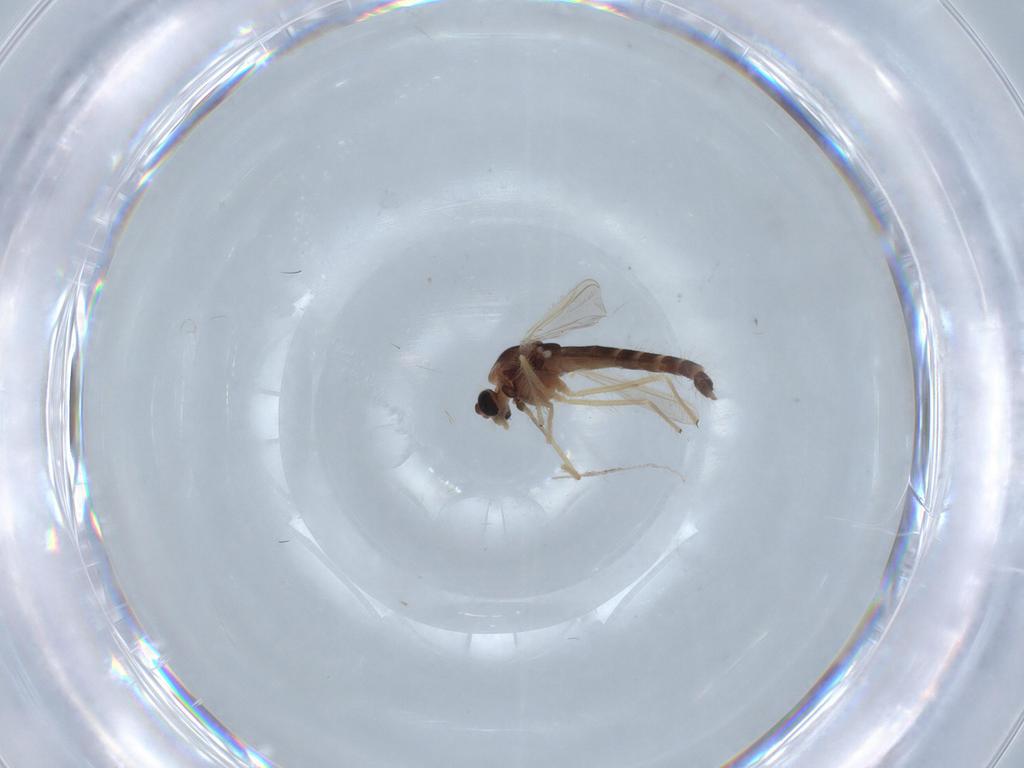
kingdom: Animalia
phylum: Arthropoda
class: Insecta
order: Diptera
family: Chironomidae
